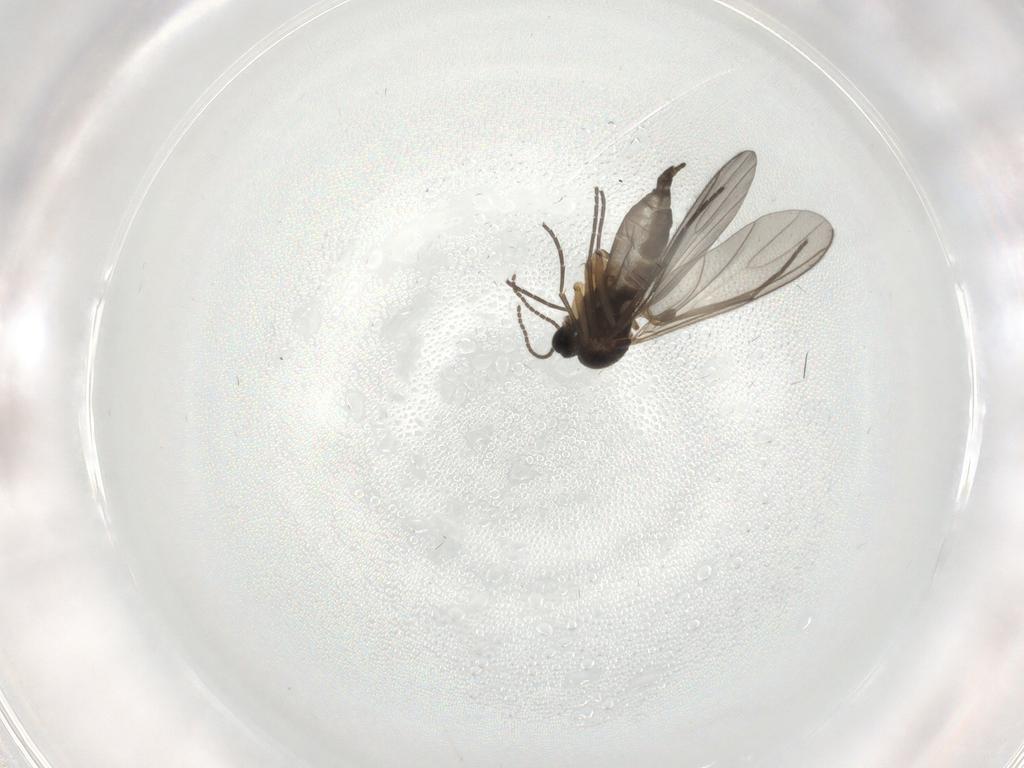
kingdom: Animalia
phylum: Arthropoda
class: Insecta
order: Diptera
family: Sciaridae
